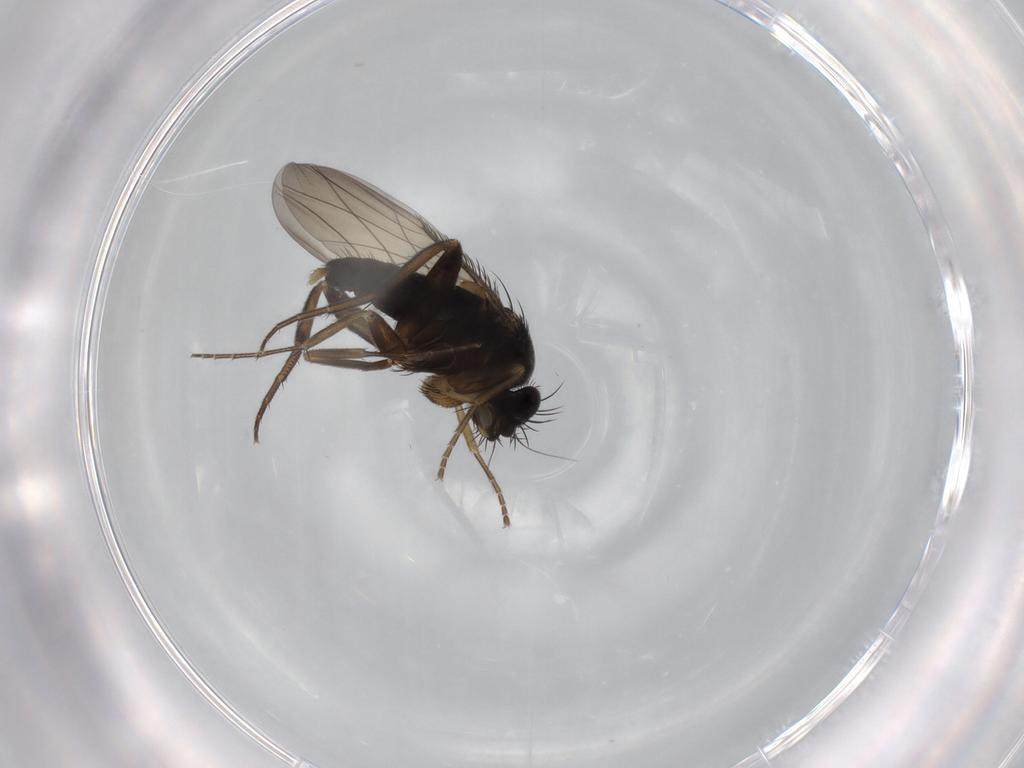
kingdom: Animalia
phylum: Arthropoda
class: Insecta
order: Diptera
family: Phoridae
